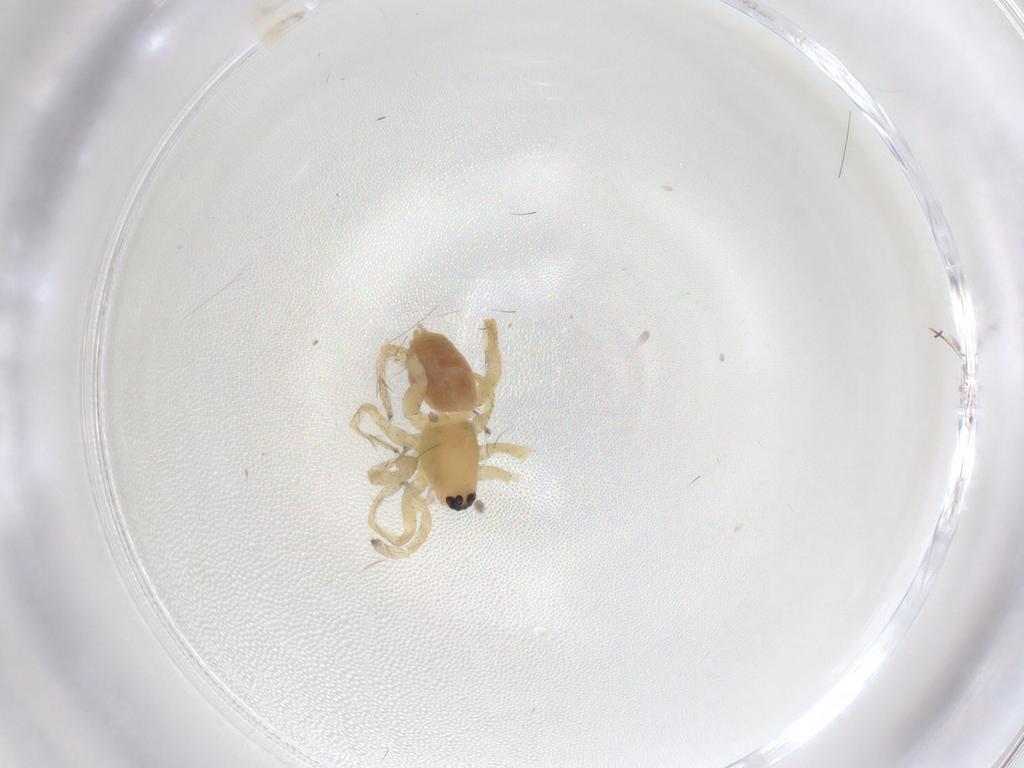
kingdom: Animalia
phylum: Arthropoda
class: Arachnida
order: Araneae
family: Anyphaenidae
